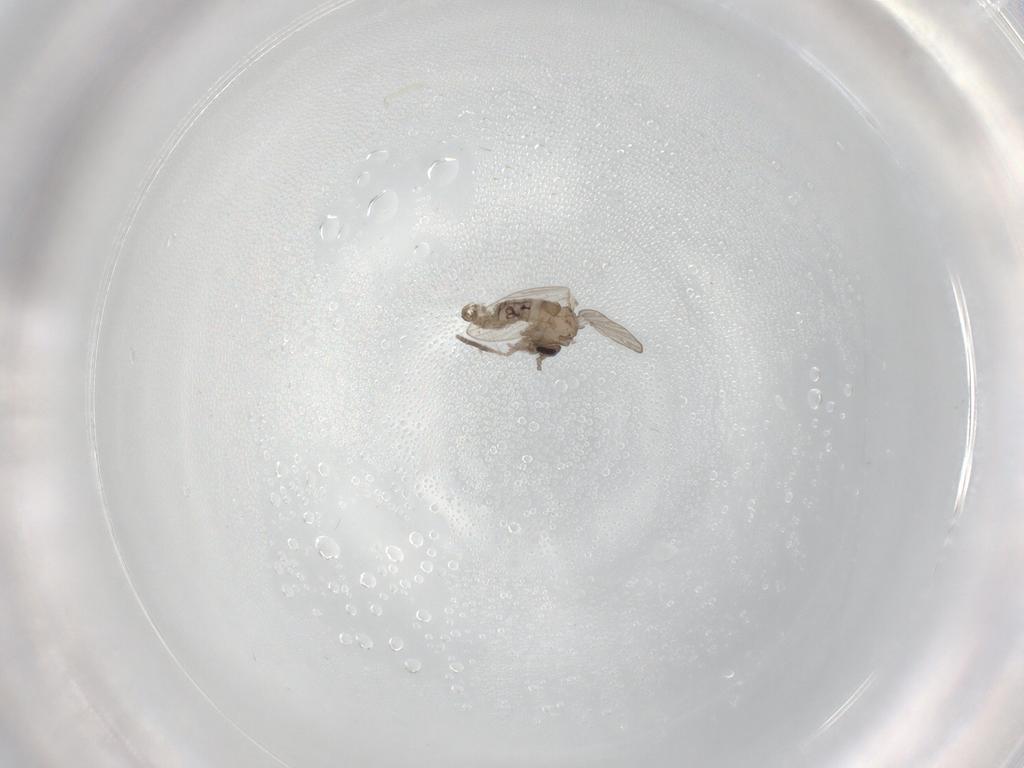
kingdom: Animalia
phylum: Arthropoda
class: Insecta
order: Diptera
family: Psychodidae
